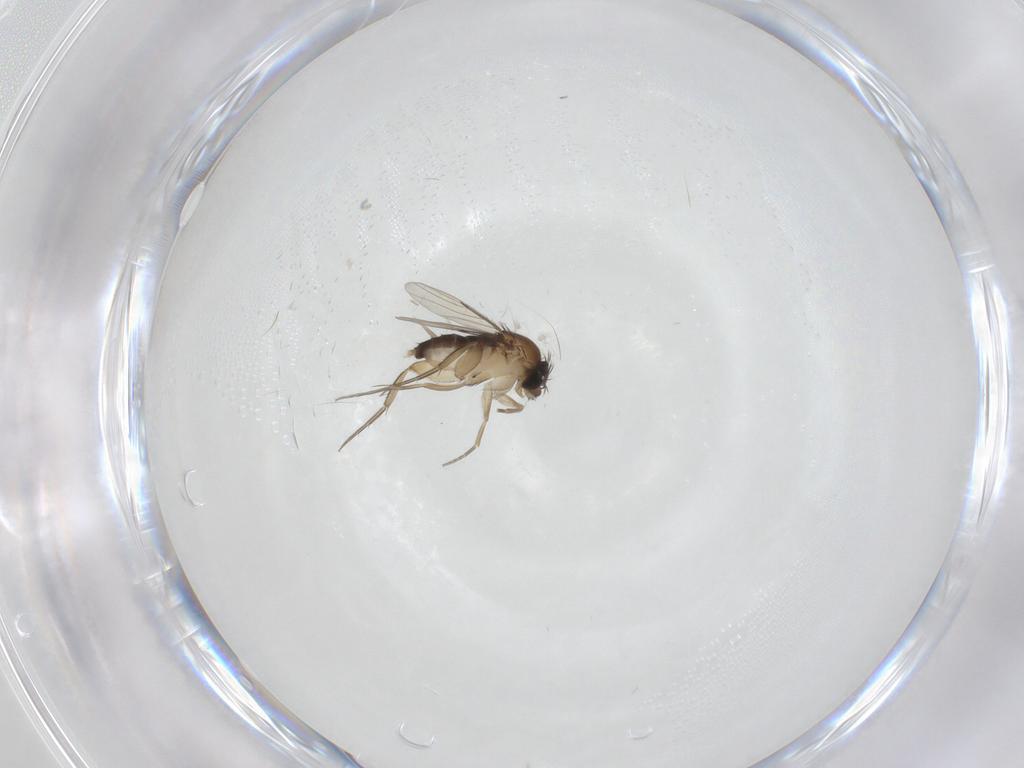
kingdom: Animalia
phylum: Arthropoda
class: Insecta
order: Diptera
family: Phoridae
